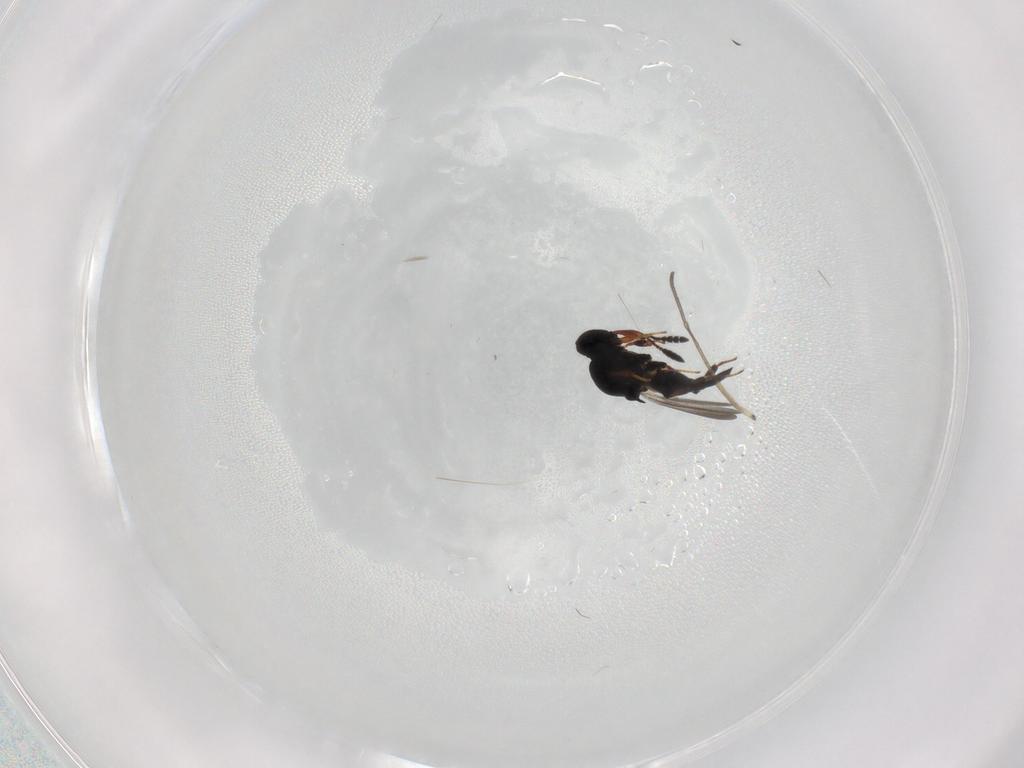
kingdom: Animalia
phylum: Arthropoda
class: Insecta
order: Hymenoptera
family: Platygastridae
